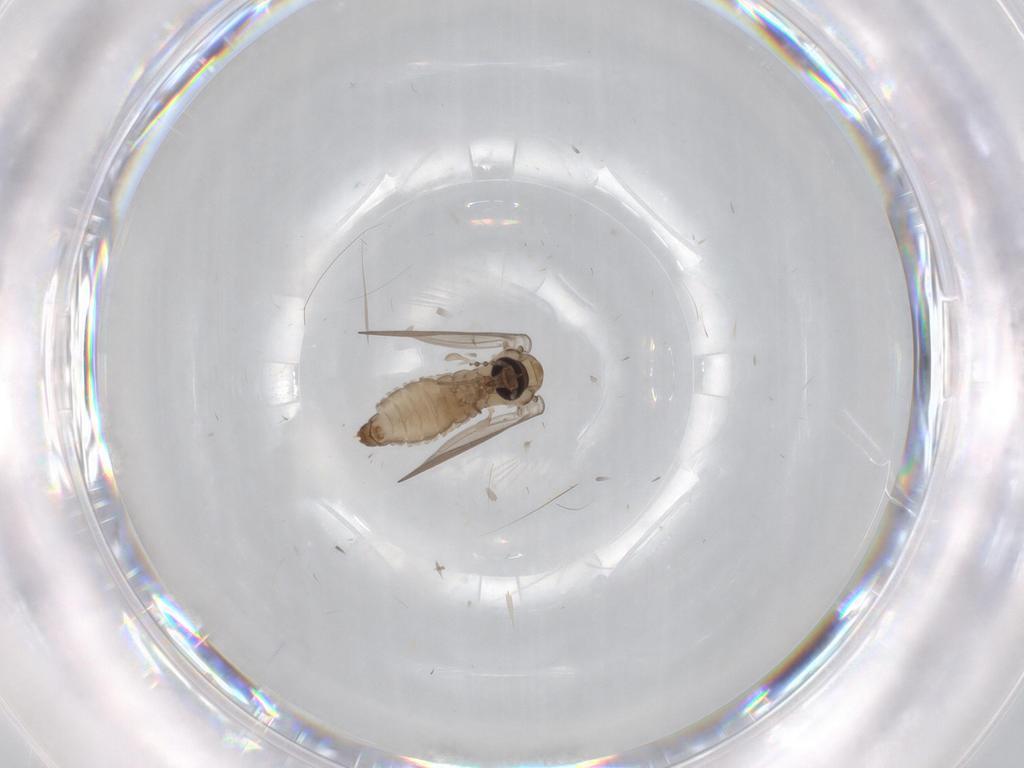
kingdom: Animalia
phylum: Arthropoda
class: Insecta
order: Diptera
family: Psychodidae
